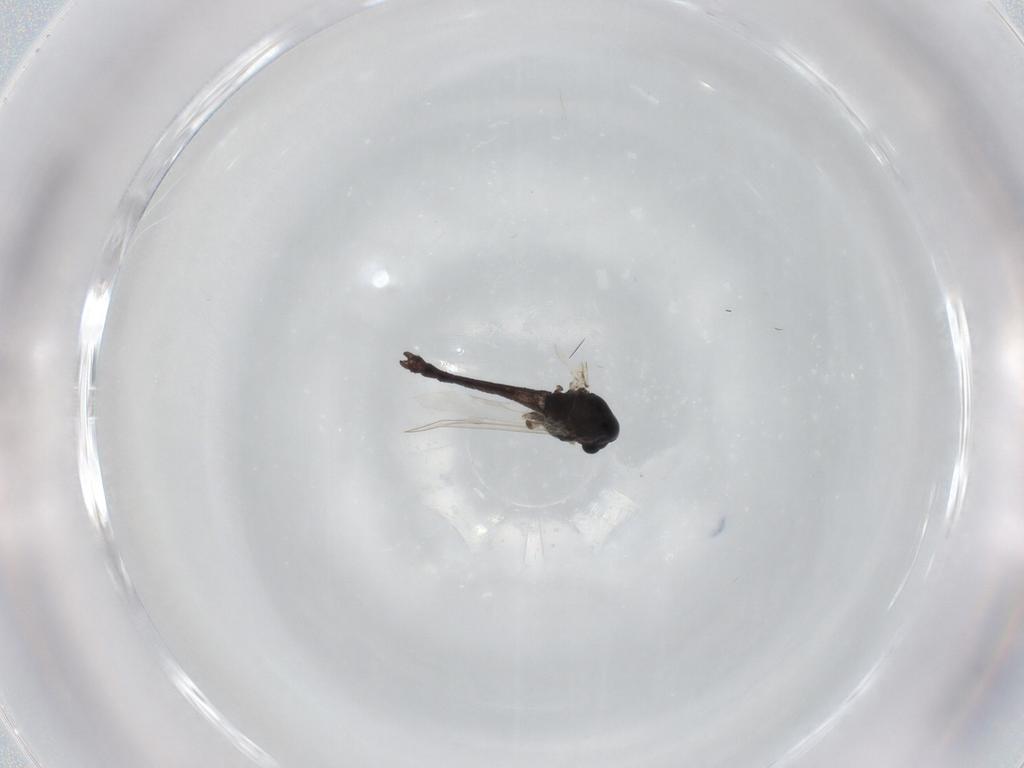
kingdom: Animalia
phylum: Arthropoda
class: Insecta
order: Diptera
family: Chironomidae
